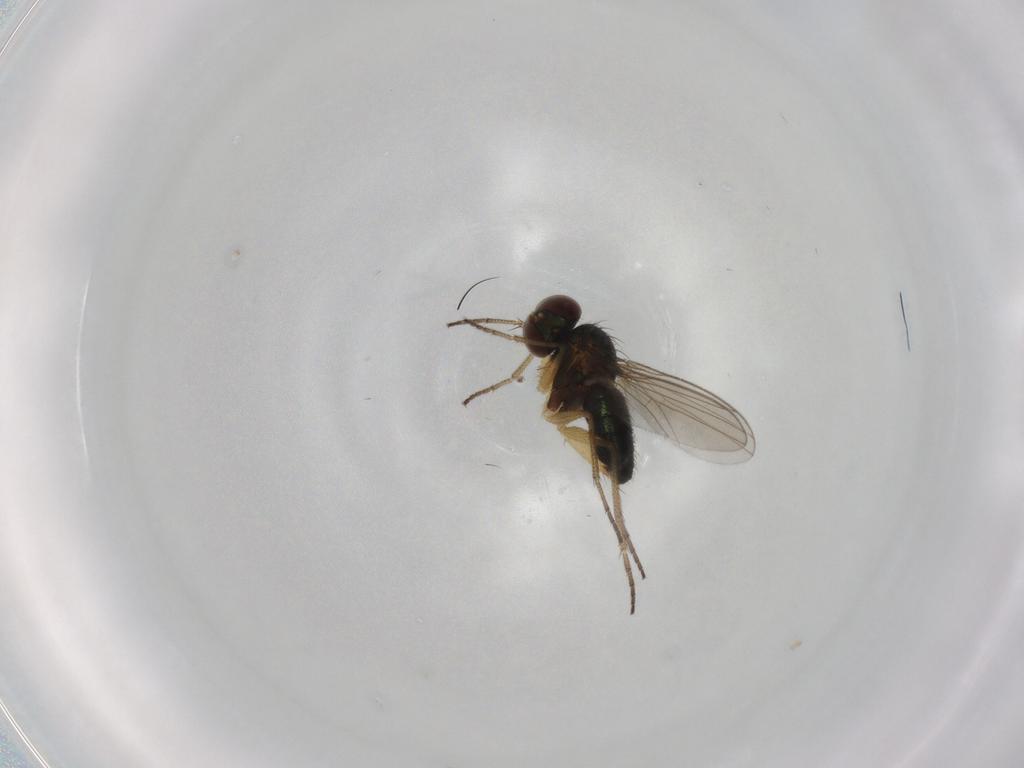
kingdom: Animalia
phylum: Arthropoda
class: Insecta
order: Diptera
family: Dolichopodidae
